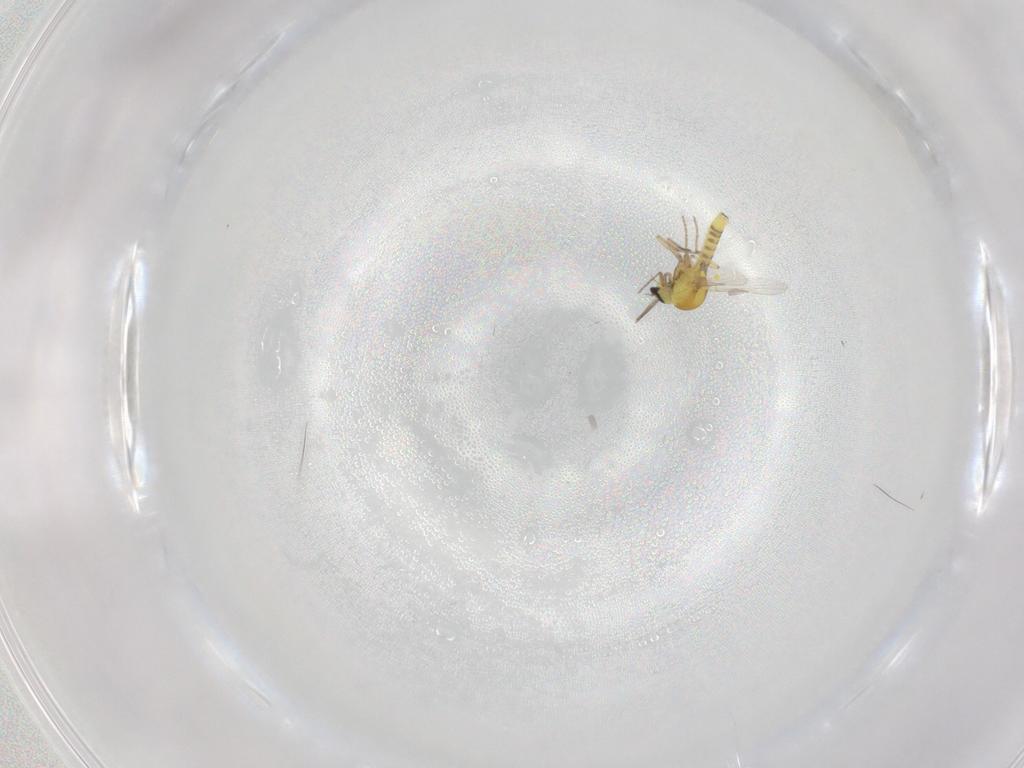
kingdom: Animalia
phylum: Arthropoda
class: Insecta
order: Diptera
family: Ceratopogonidae
